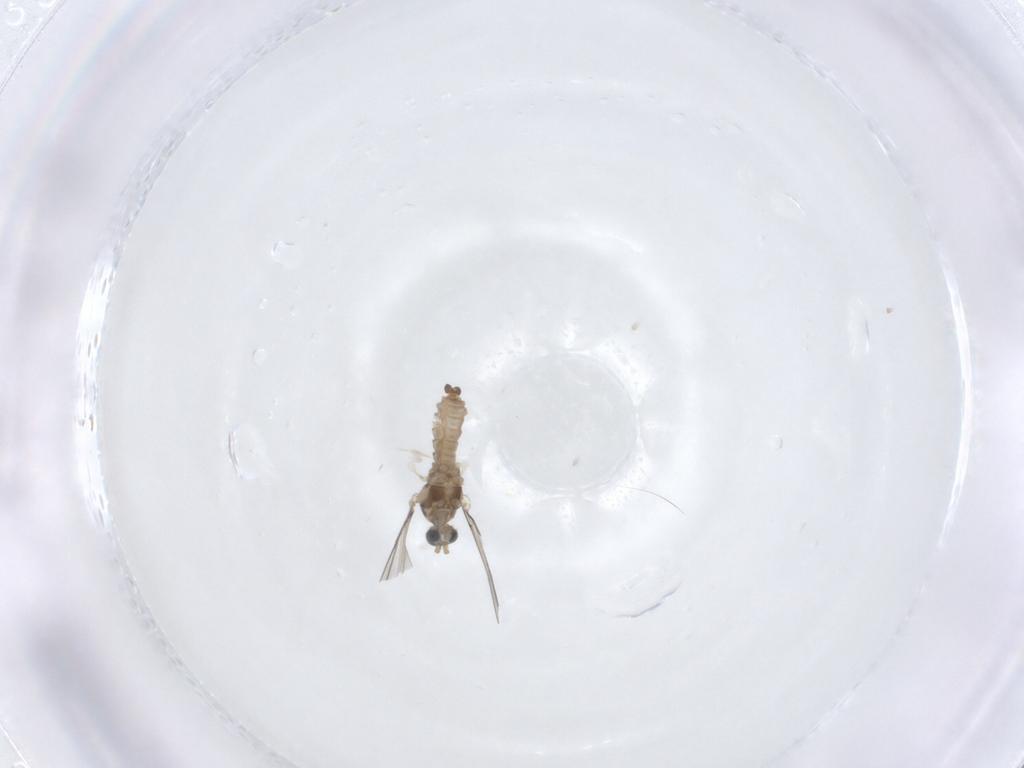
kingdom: Animalia
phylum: Arthropoda
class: Insecta
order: Diptera
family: Cecidomyiidae
